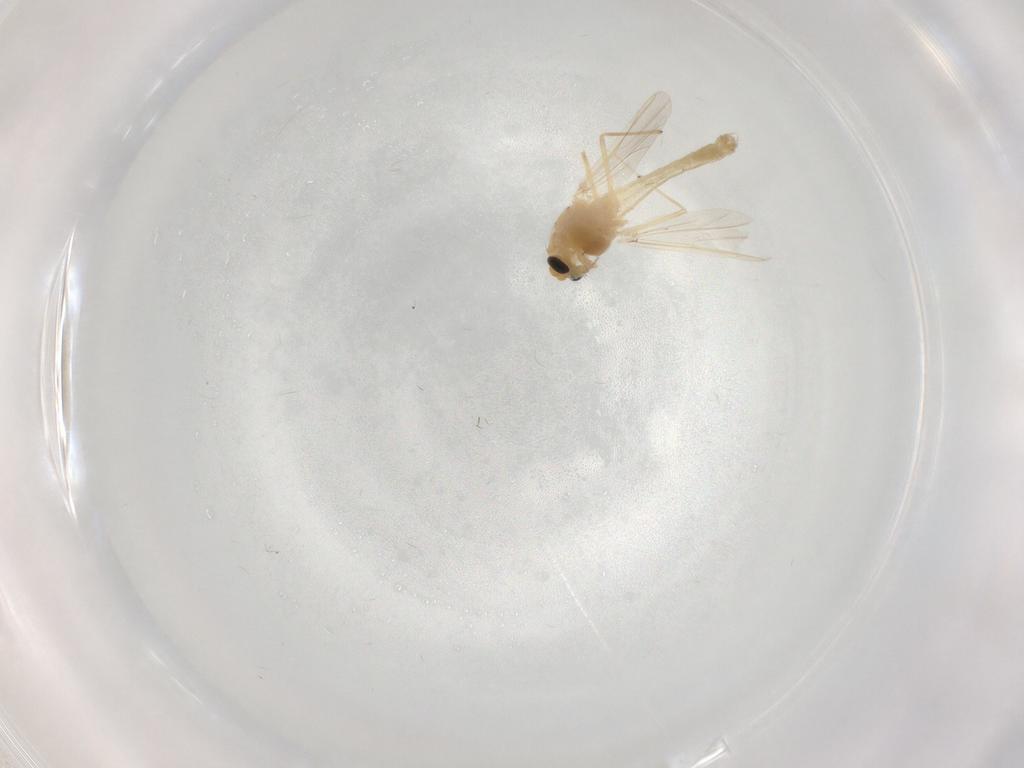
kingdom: Animalia
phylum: Arthropoda
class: Insecta
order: Diptera
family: Chironomidae
